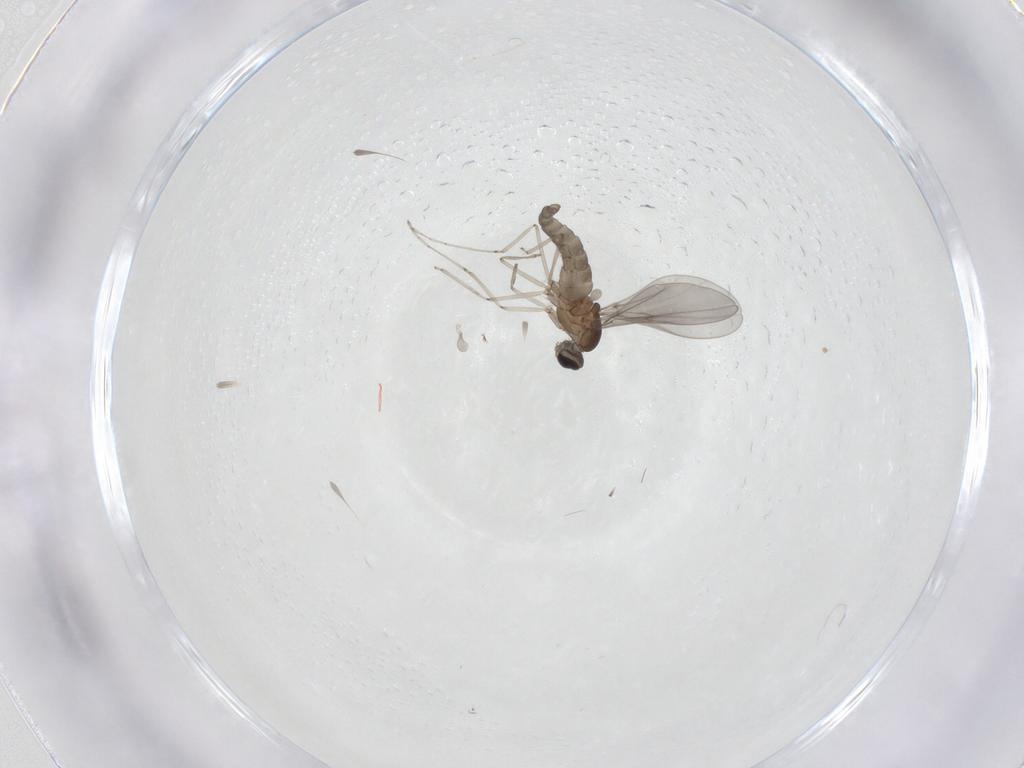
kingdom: Animalia
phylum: Arthropoda
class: Insecta
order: Diptera
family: Cecidomyiidae
